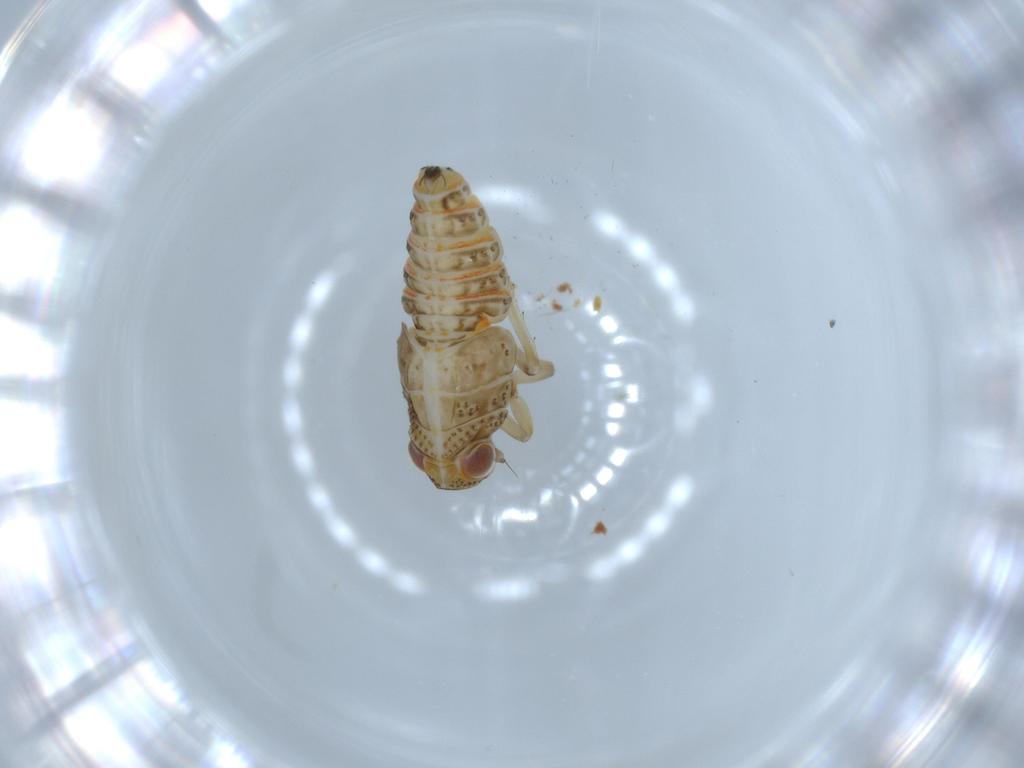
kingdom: Animalia
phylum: Arthropoda
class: Insecta
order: Hemiptera
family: Issidae
